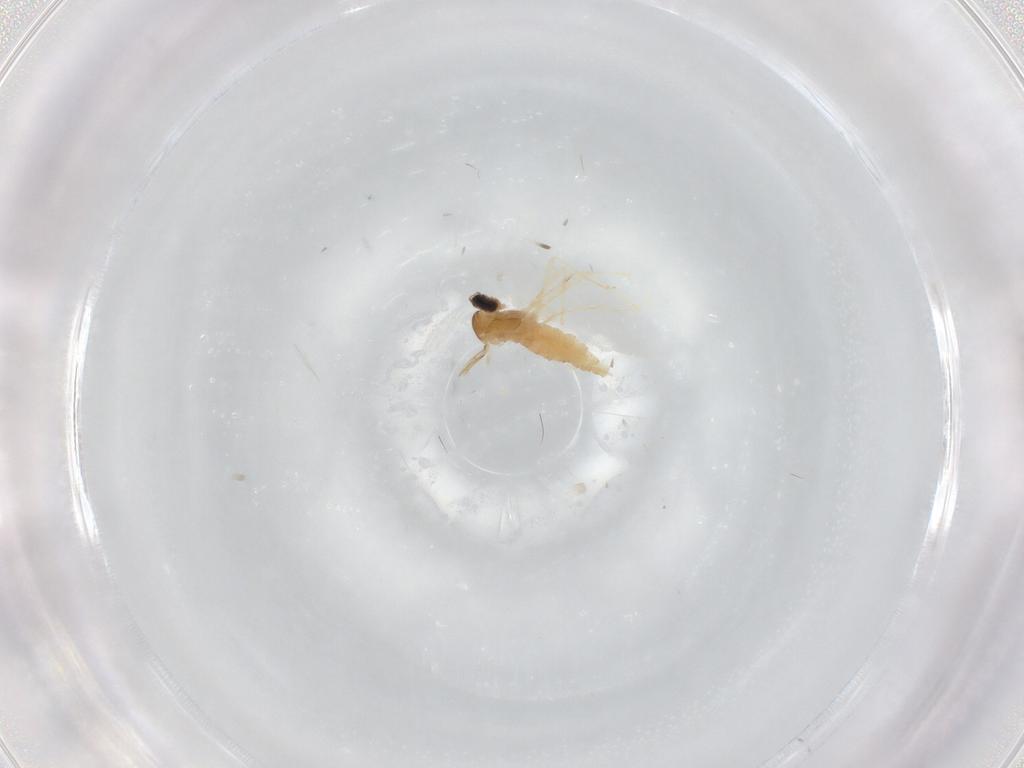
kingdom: Animalia
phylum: Arthropoda
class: Insecta
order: Diptera
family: Cecidomyiidae
